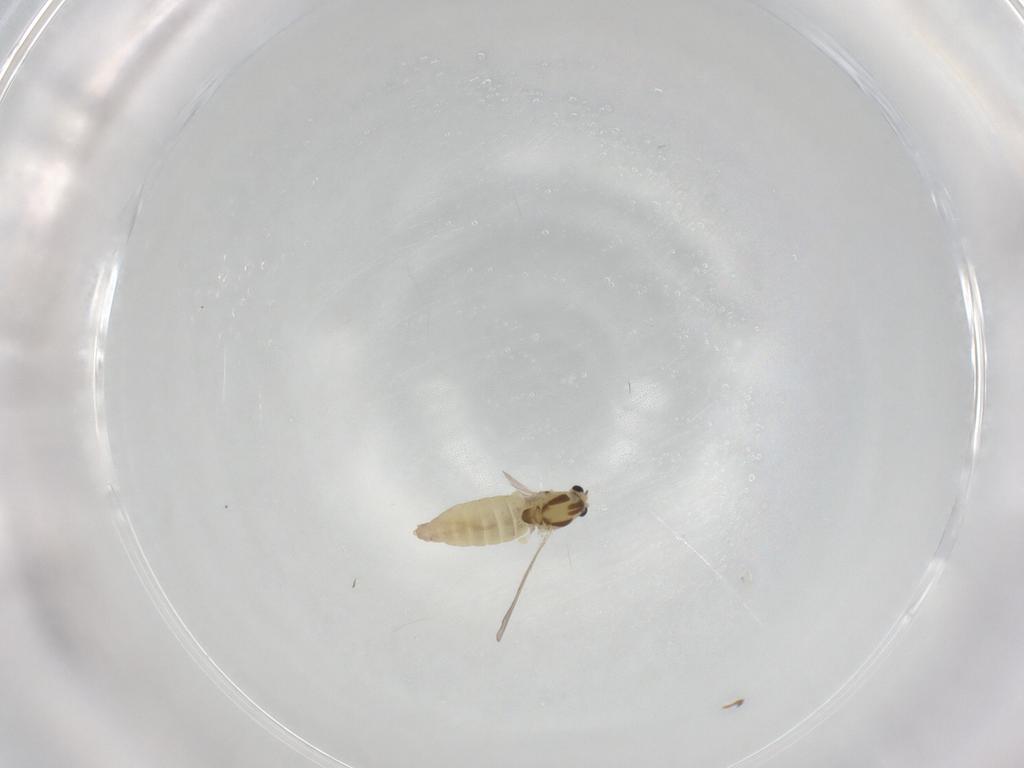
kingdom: Animalia
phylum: Arthropoda
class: Insecta
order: Diptera
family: Chironomidae
